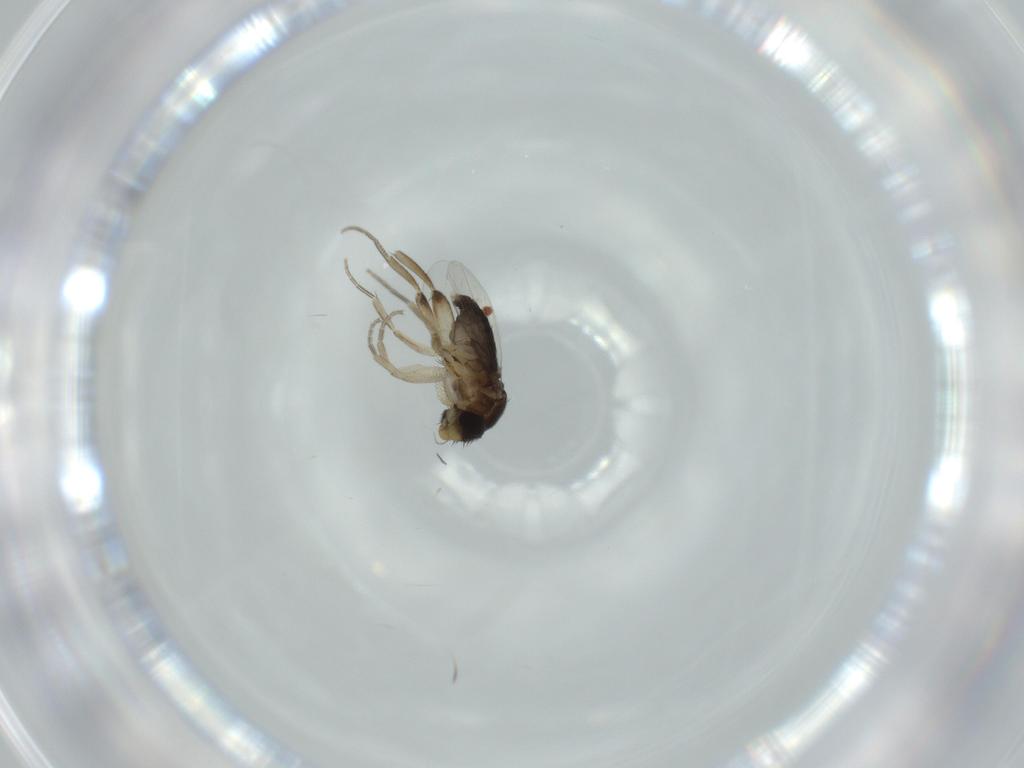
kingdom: Animalia
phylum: Arthropoda
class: Insecta
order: Diptera
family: Phoridae
